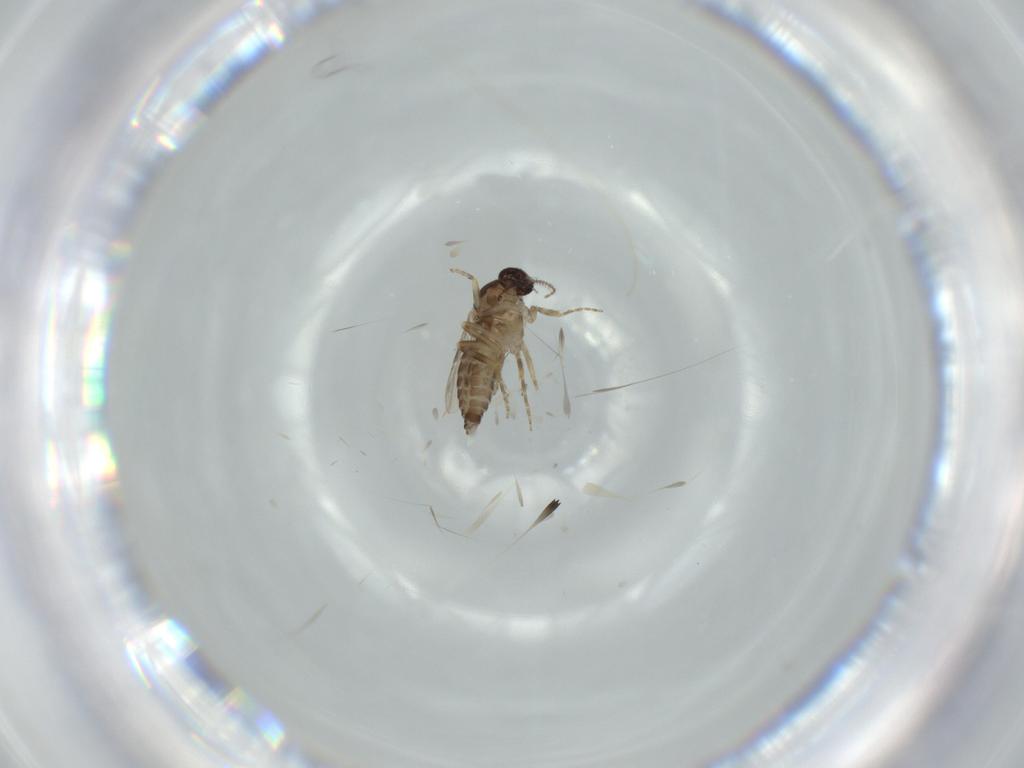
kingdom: Animalia
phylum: Arthropoda
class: Insecta
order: Diptera
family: Ceratopogonidae
